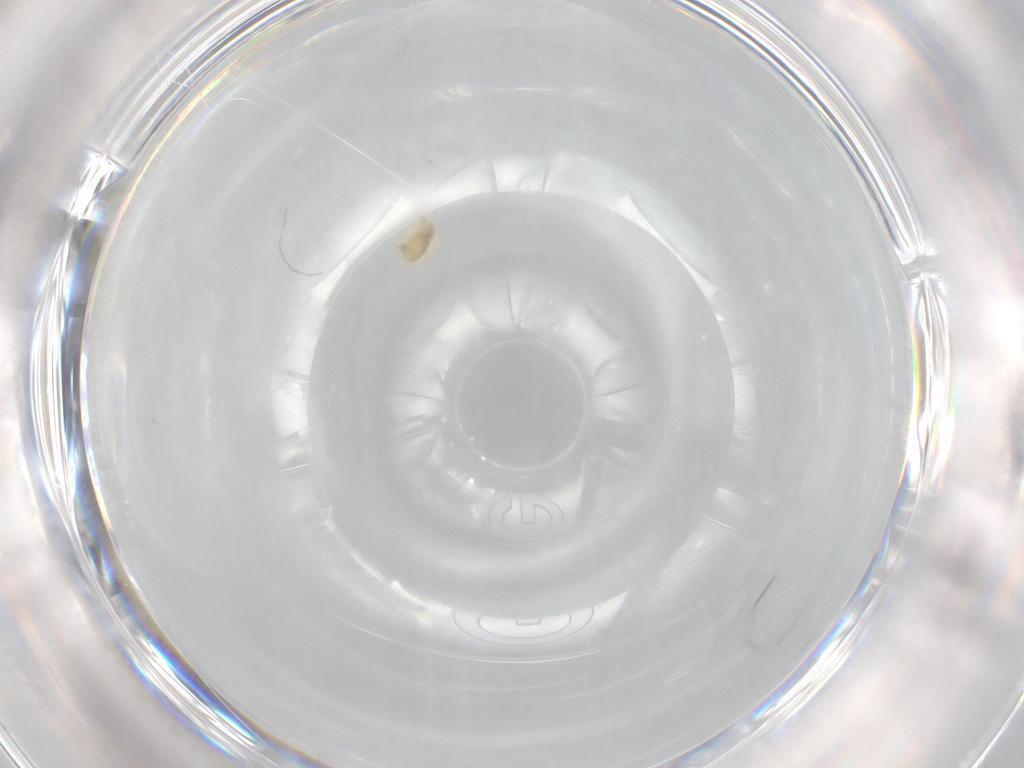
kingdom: Animalia
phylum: Arthropoda
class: Arachnida
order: Trombidiformes
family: Eupodidae
